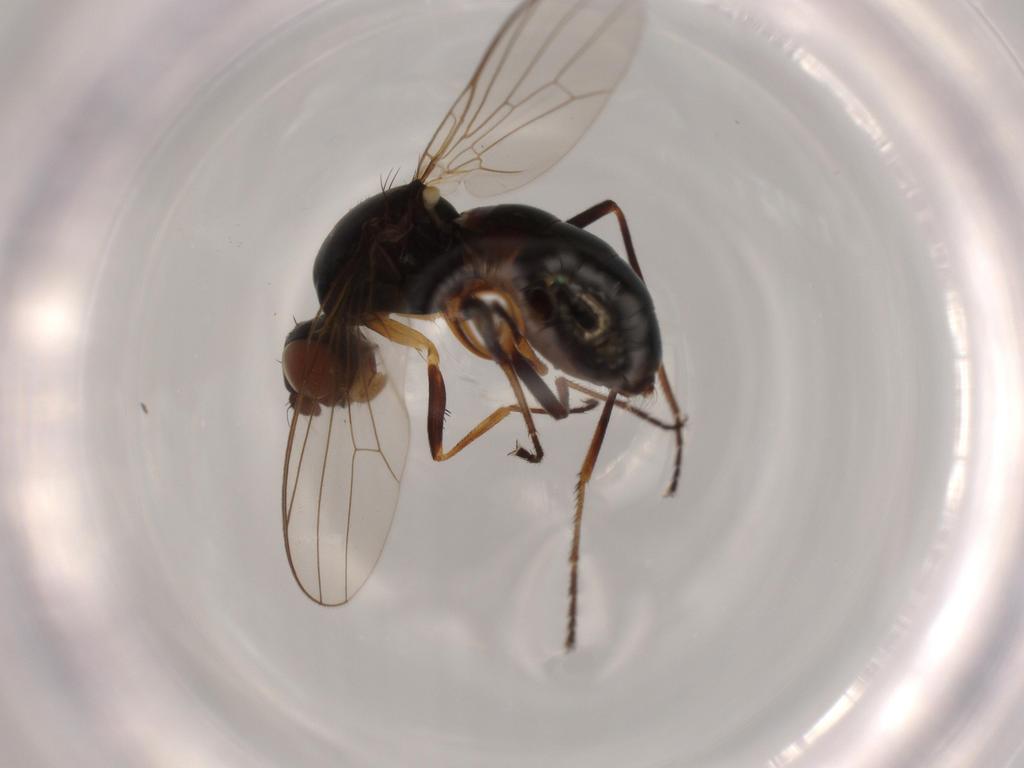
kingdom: Animalia
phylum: Arthropoda
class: Insecta
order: Diptera
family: Sepsidae
